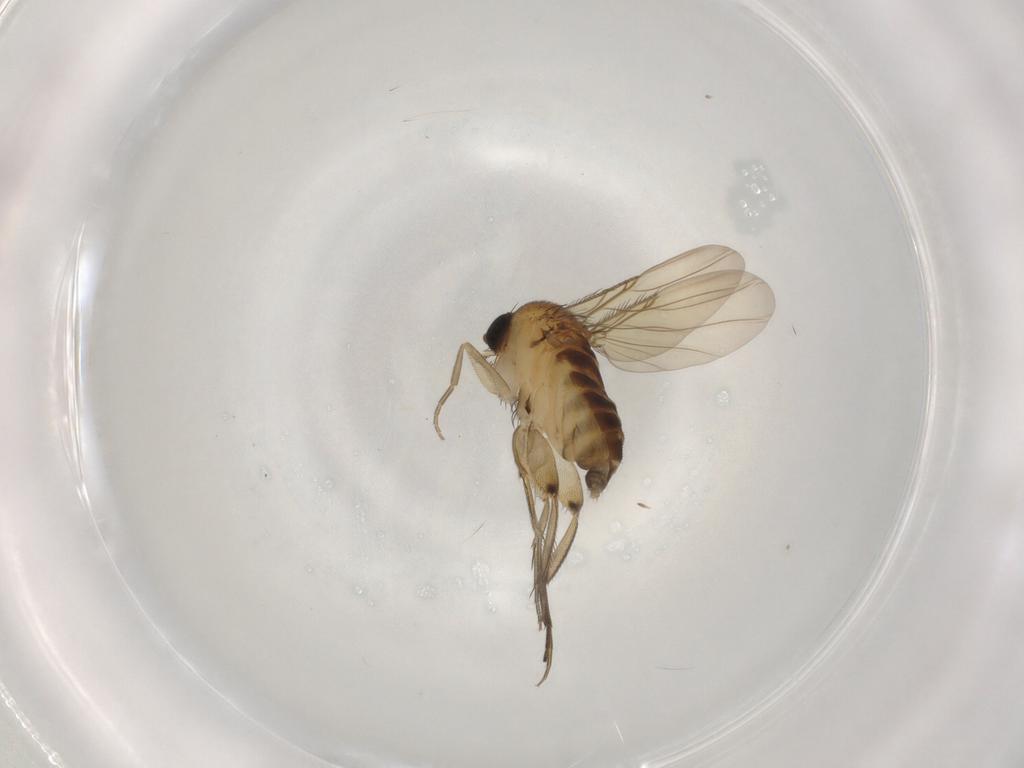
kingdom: Animalia
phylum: Arthropoda
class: Insecta
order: Diptera
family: Phoridae
